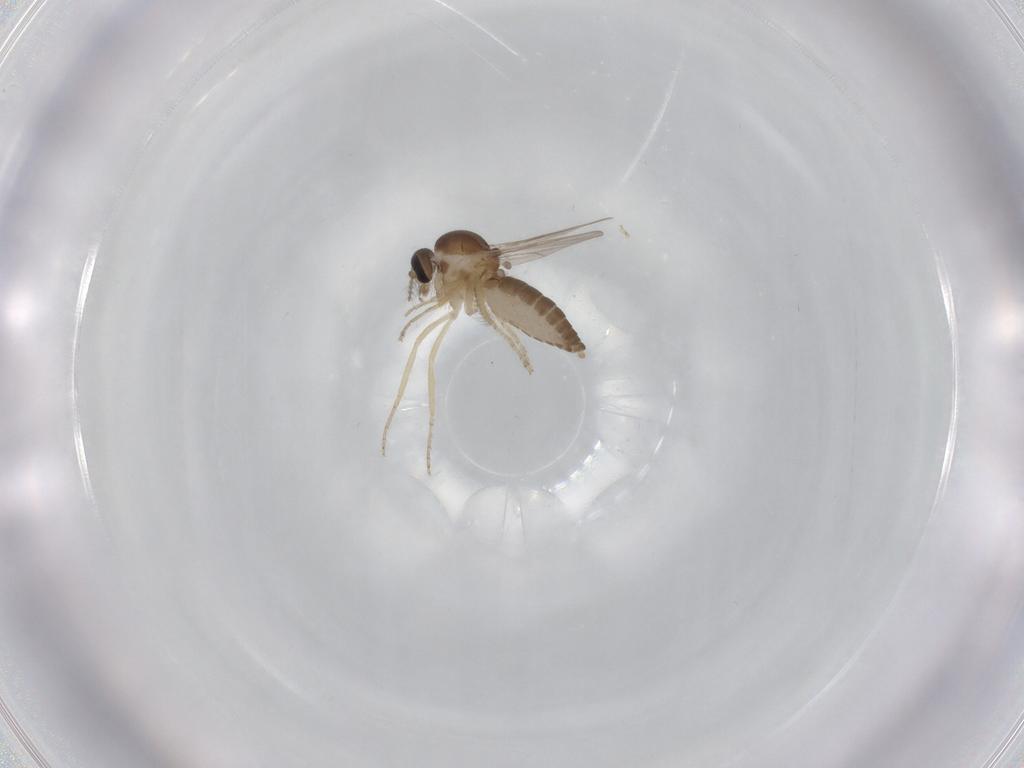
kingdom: Animalia
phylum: Arthropoda
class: Insecta
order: Diptera
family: Ceratopogonidae
